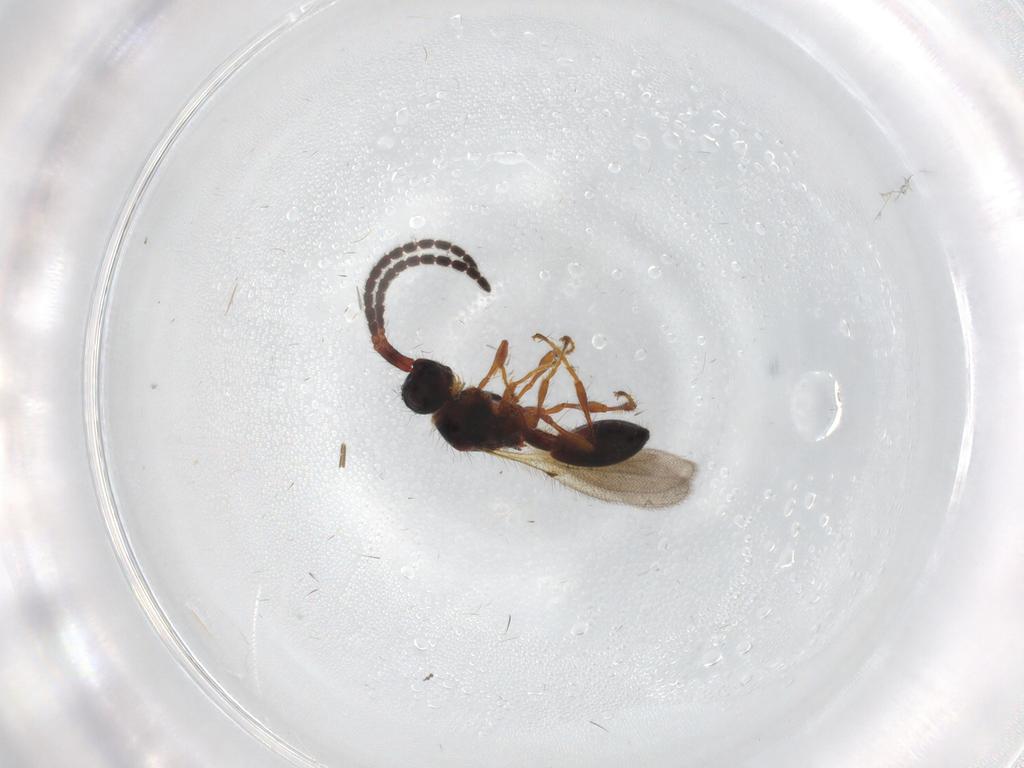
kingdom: Animalia
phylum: Arthropoda
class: Insecta
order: Hymenoptera
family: Diapriidae
